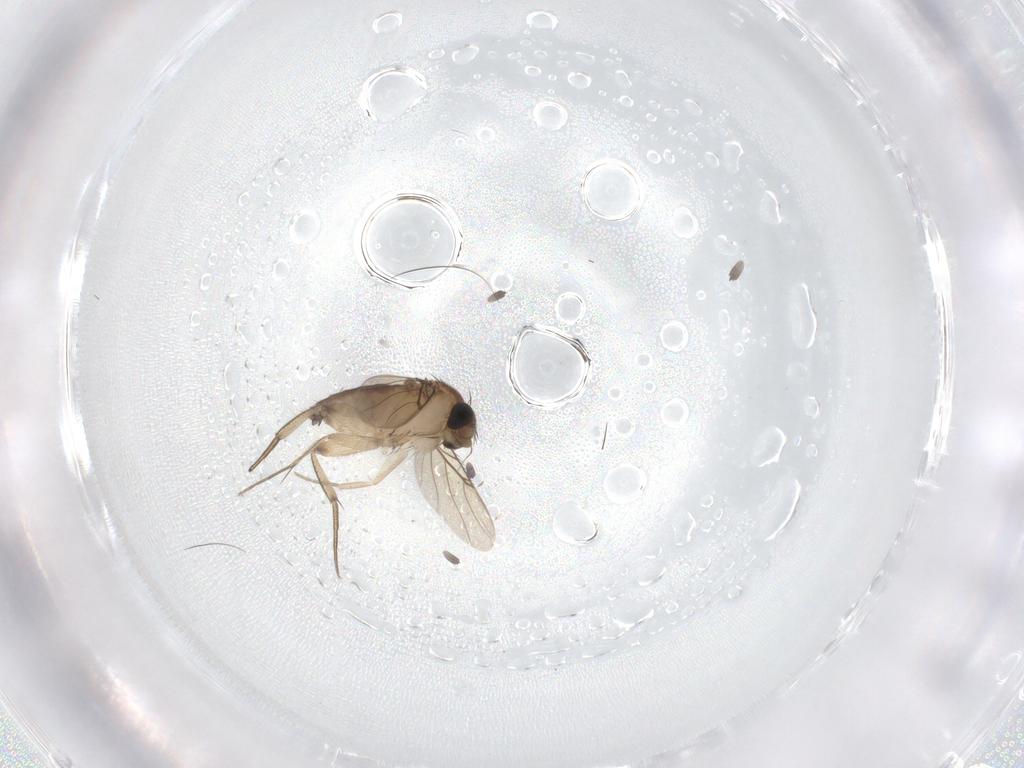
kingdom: Animalia
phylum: Arthropoda
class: Insecta
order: Diptera
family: Phoridae
